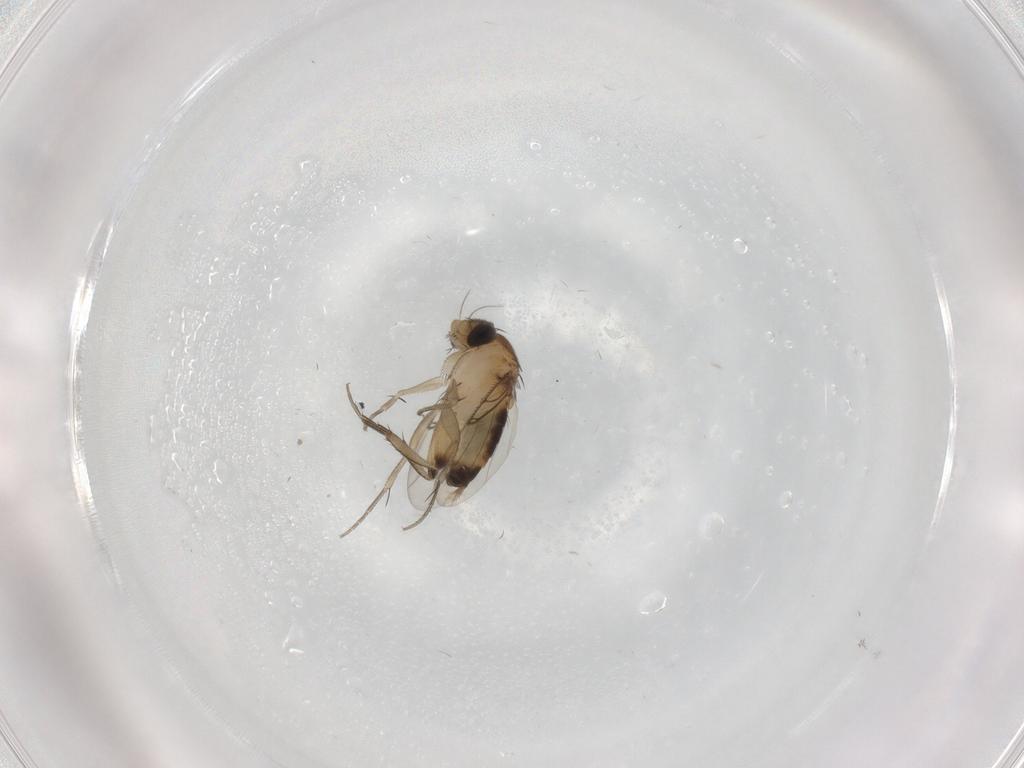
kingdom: Animalia
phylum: Arthropoda
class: Insecta
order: Diptera
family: Phoridae
